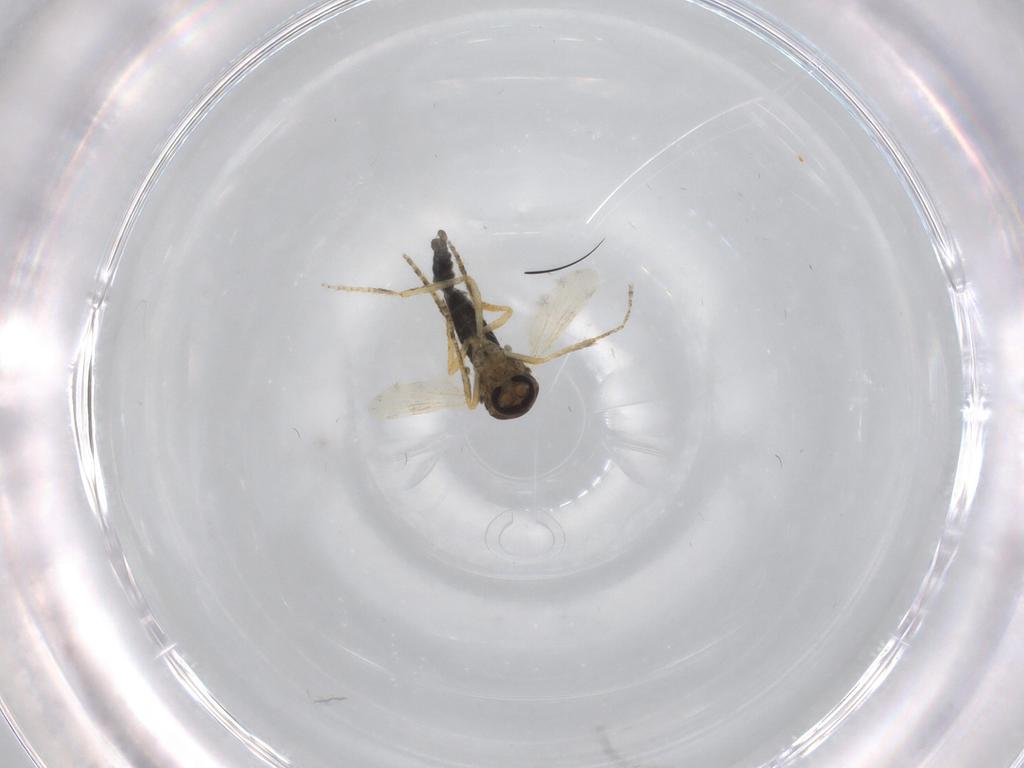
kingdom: Animalia
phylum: Arthropoda
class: Insecta
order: Diptera
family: Ceratopogonidae
